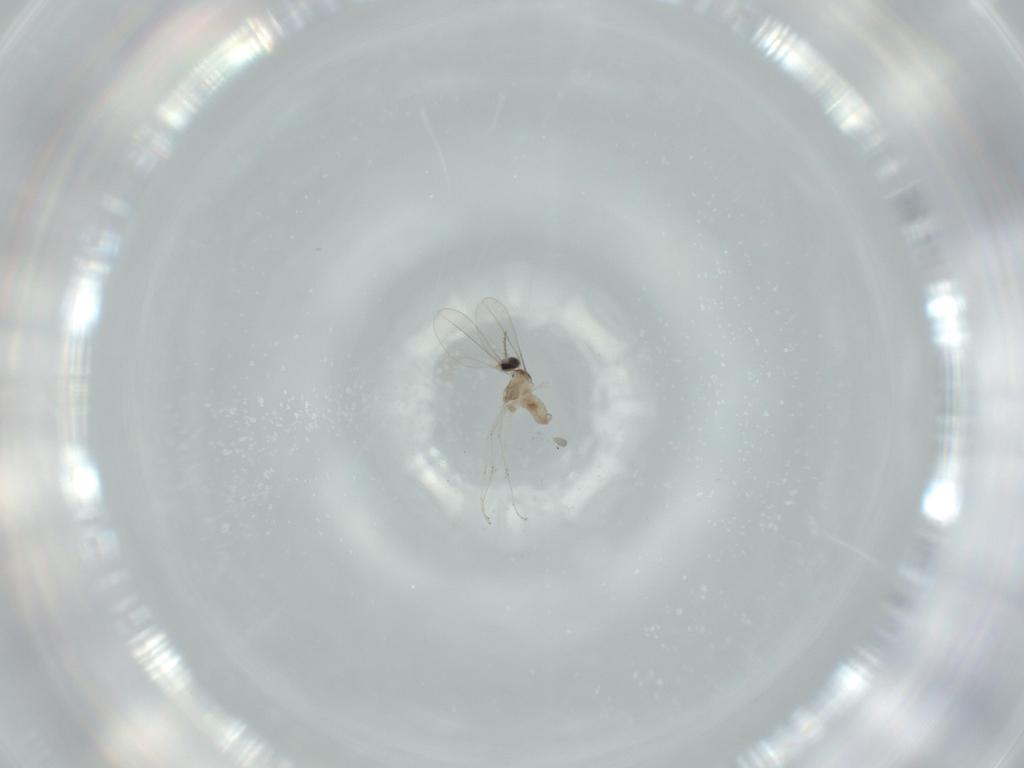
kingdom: Animalia
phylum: Arthropoda
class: Insecta
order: Diptera
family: Cecidomyiidae
